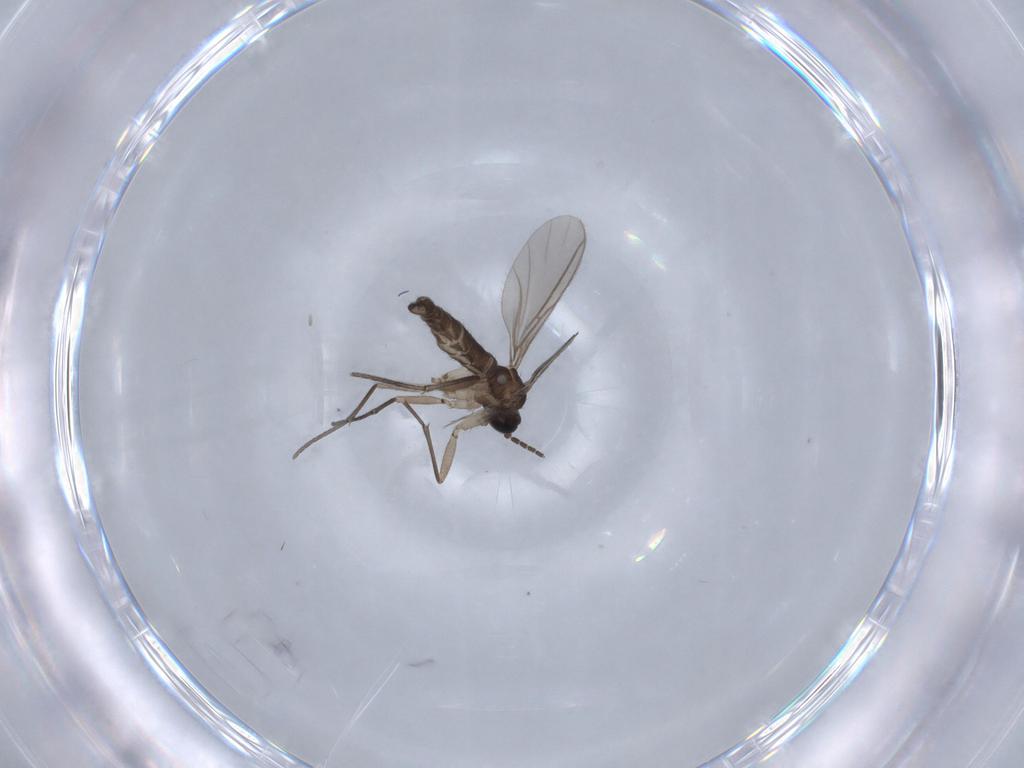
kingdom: Animalia
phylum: Arthropoda
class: Insecta
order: Diptera
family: Sciaridae
